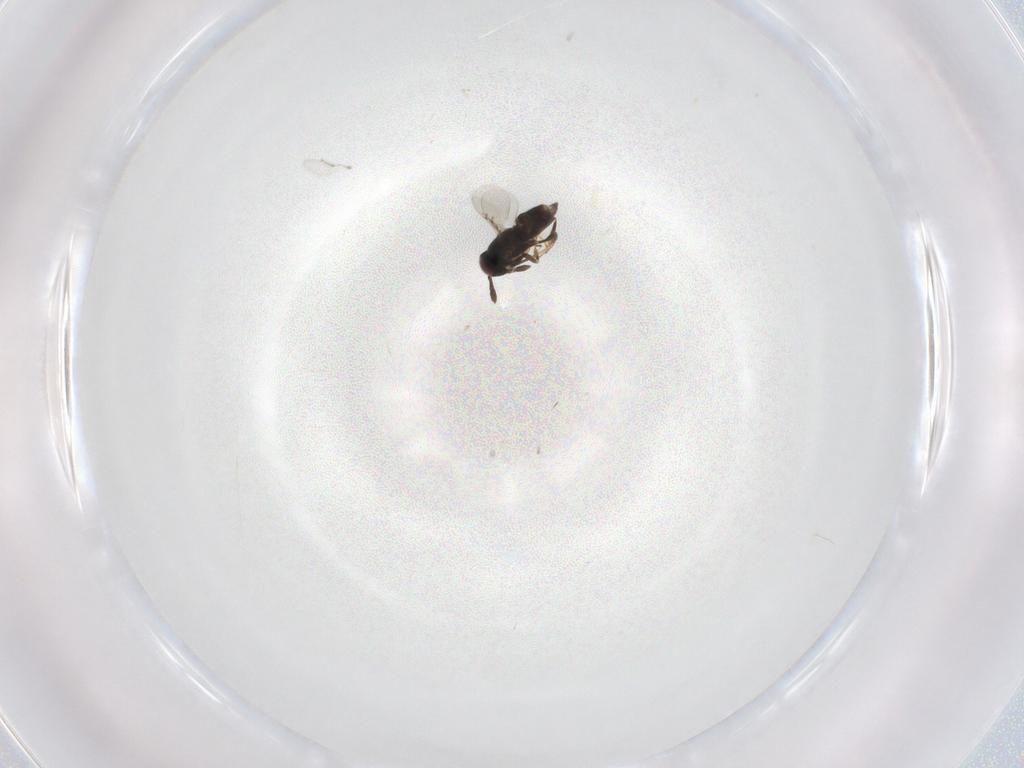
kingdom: Animalia
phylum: Arthropoda
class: Insecta
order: Hymenoptera
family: Encyrtidae
